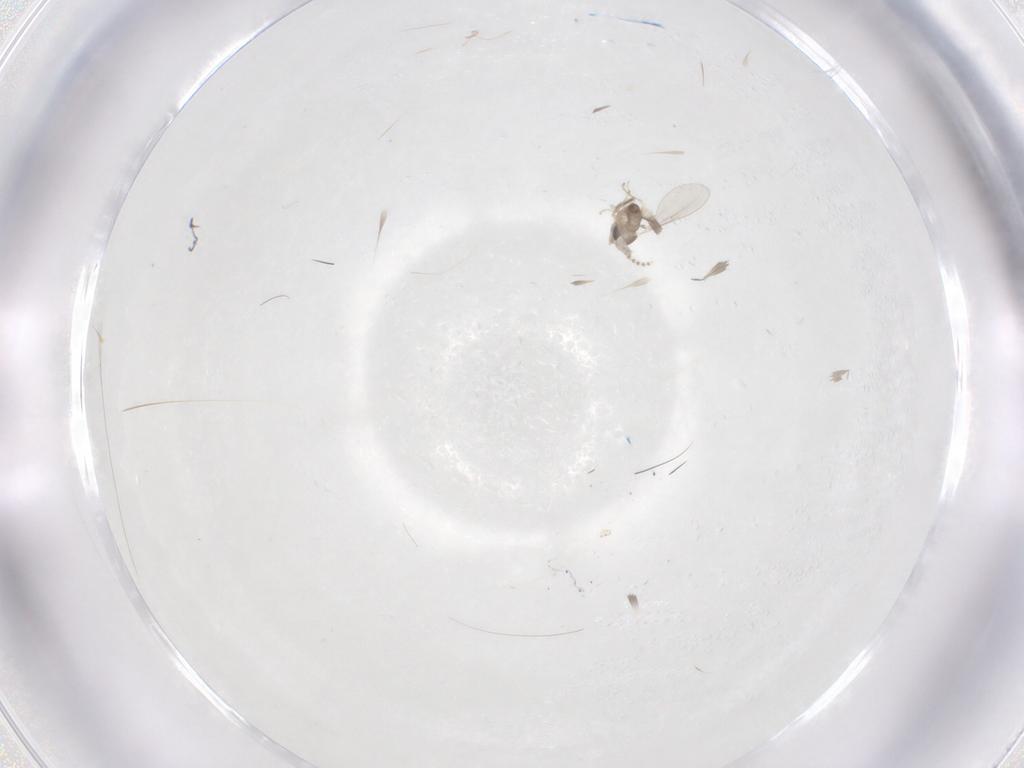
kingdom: Animalia
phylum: Arthropoda
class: Insecta
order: Diptera
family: Cecidomyiidae
